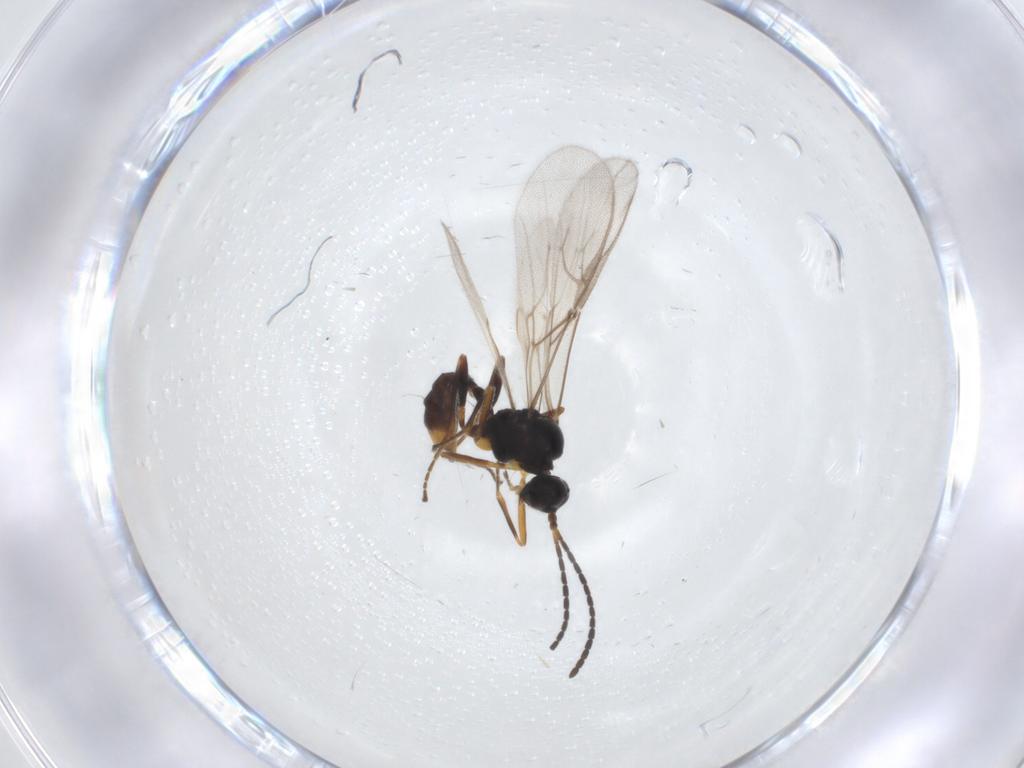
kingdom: Animalia
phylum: Arthropoda
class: Insecta
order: Hymenoptera
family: Braconidae
